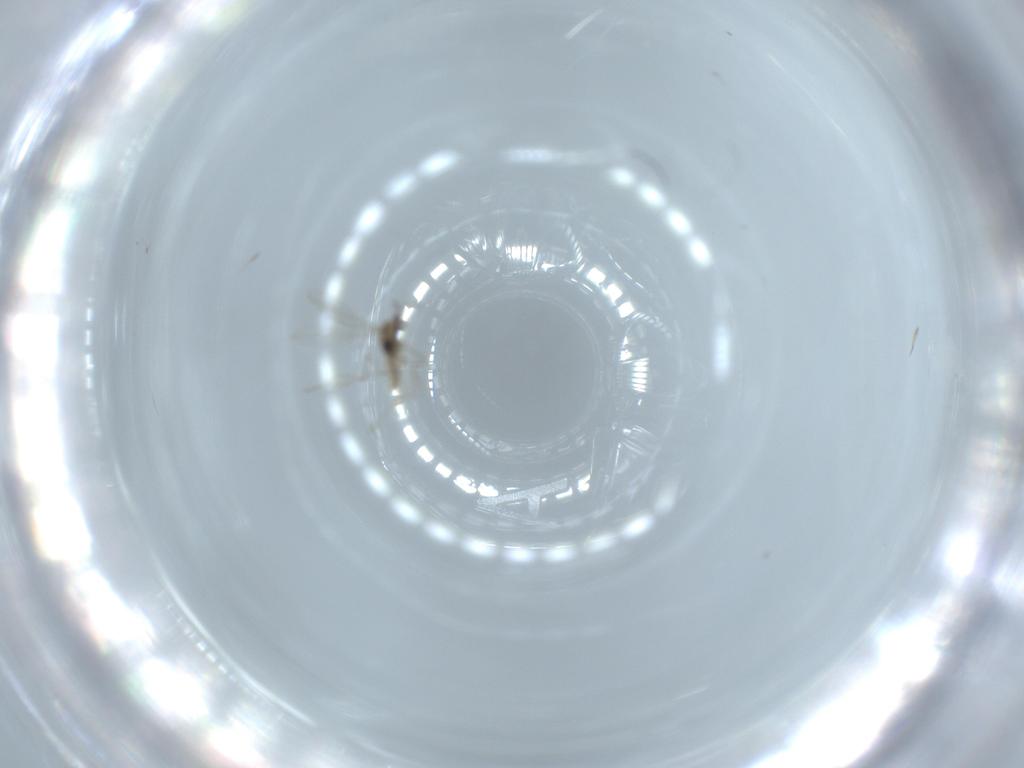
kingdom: Animalia
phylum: Arthropoda
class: Insecta
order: Diptera
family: Cecidomyiidae
